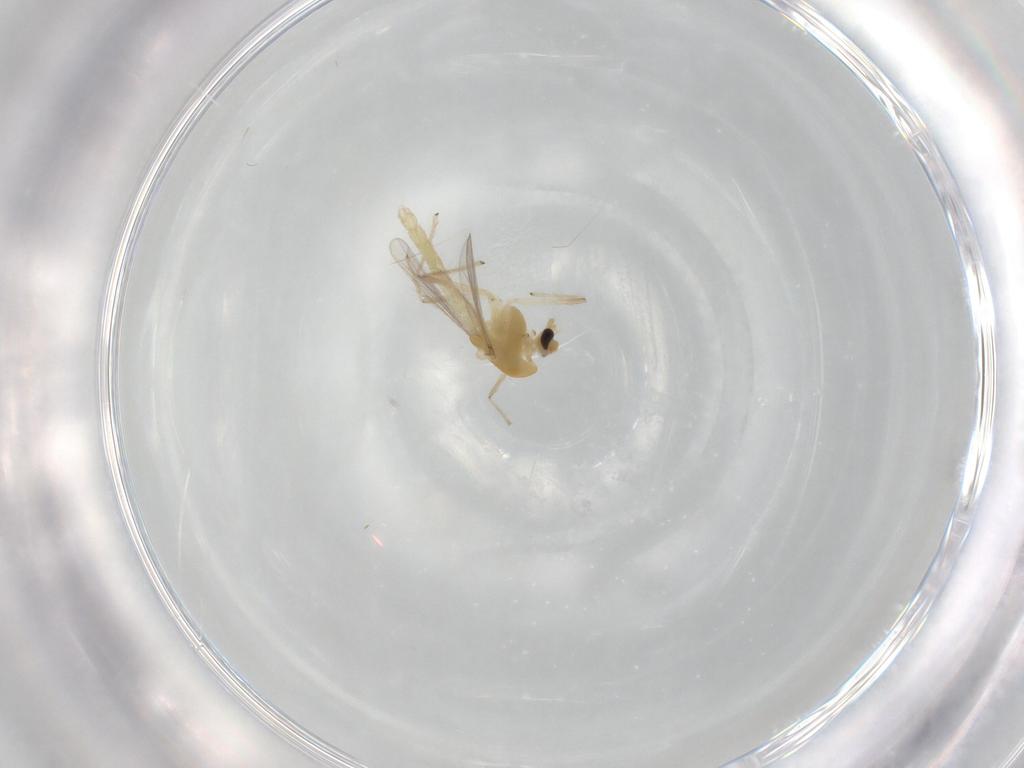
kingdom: Animalia
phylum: Arthropoda
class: Insecta
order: Diptera
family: Chironomidae
